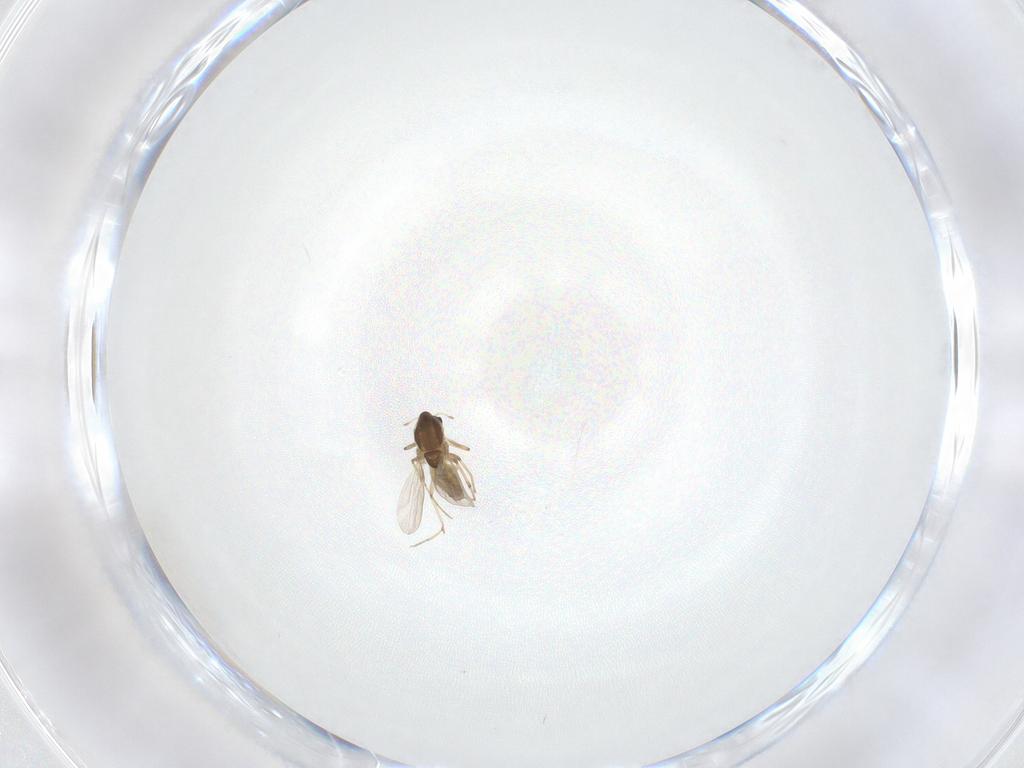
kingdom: Animalia
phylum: Arthropoda
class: Insecta
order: Diptera
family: Chironomidae
